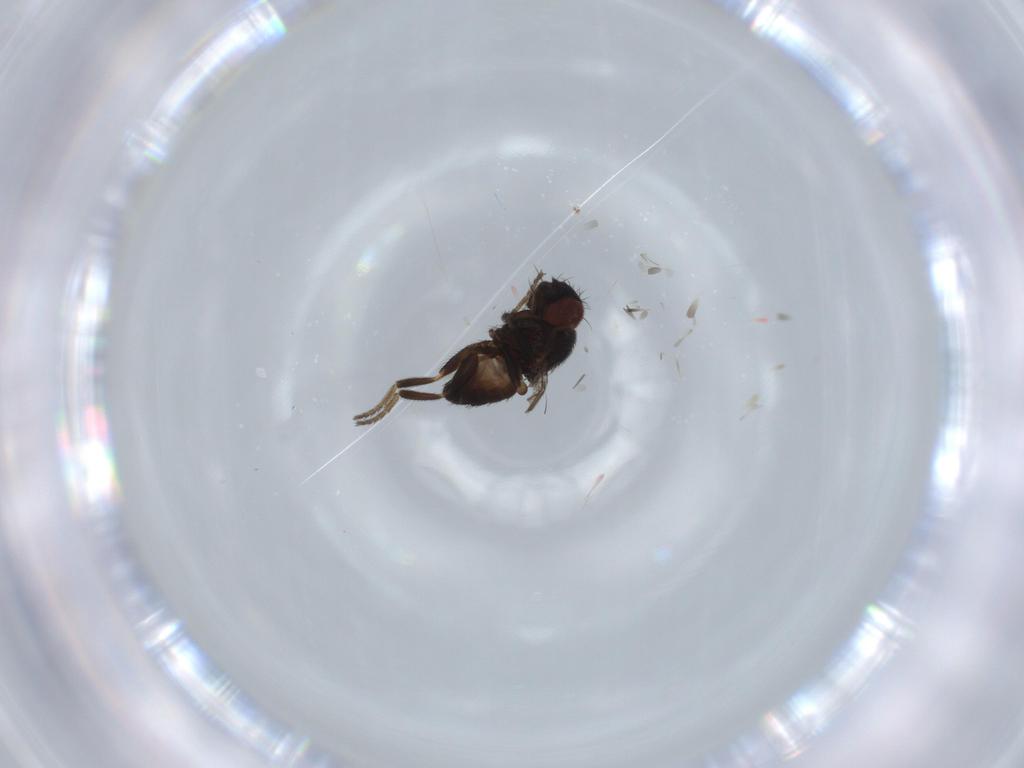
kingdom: Animalia
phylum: Arthropoda
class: Insecta
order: Diptera
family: Milichiidae
